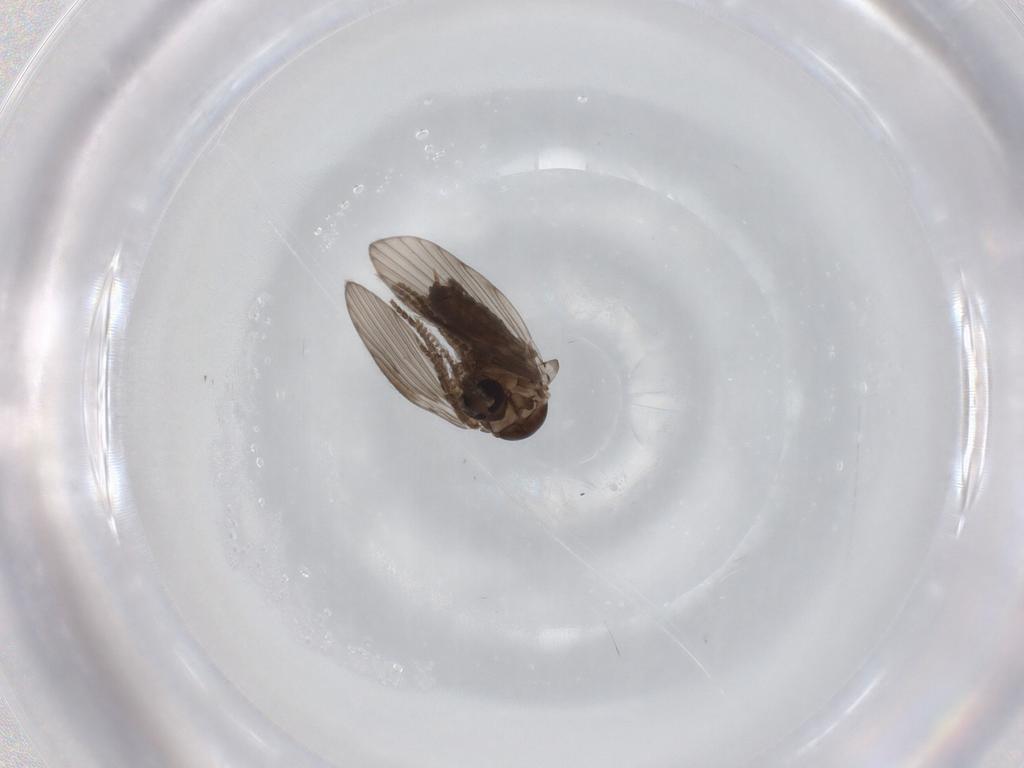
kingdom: Animalia
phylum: Arthropoda
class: Insecta
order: Diptera
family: Psychodidae
